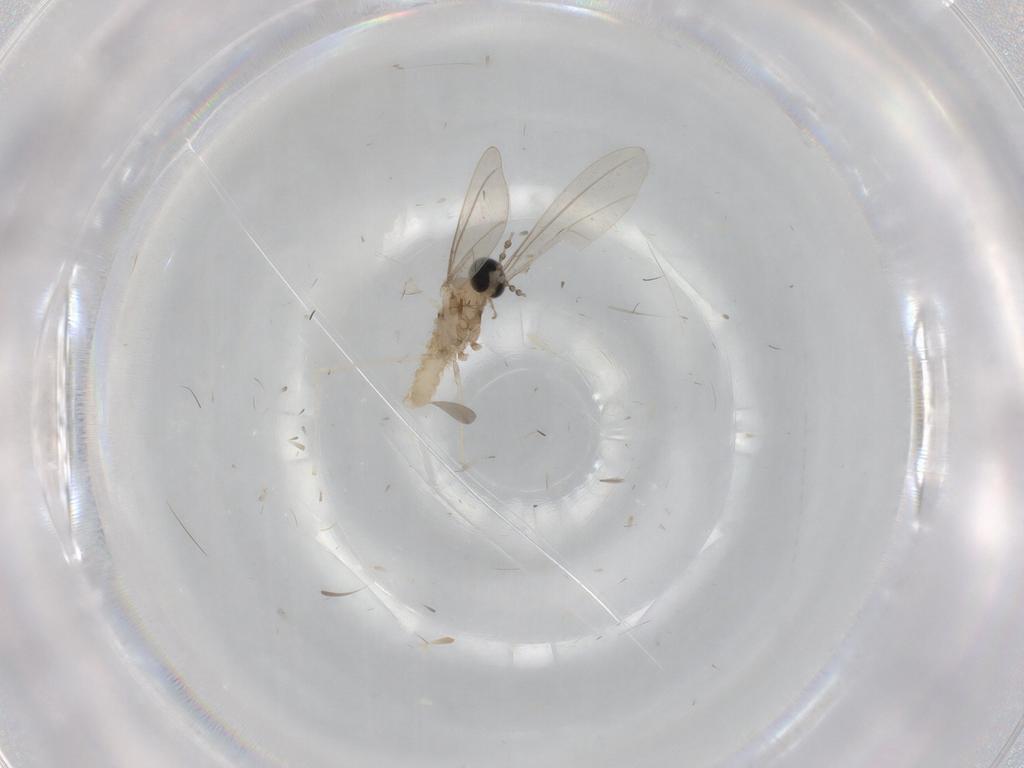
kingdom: Animalia
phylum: Arthropoda
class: Insecta
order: Diptera
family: Cecidomyiidae
